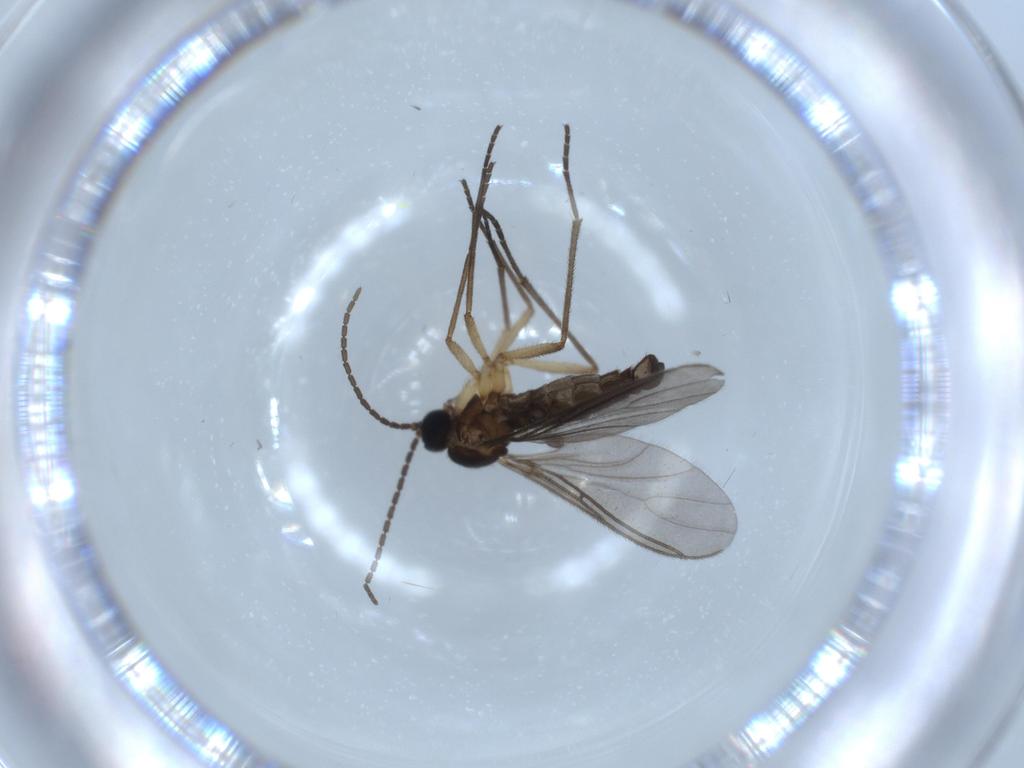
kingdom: Animalia
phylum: Arthropoda
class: Insecta
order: Diptera
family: Sciaridae
